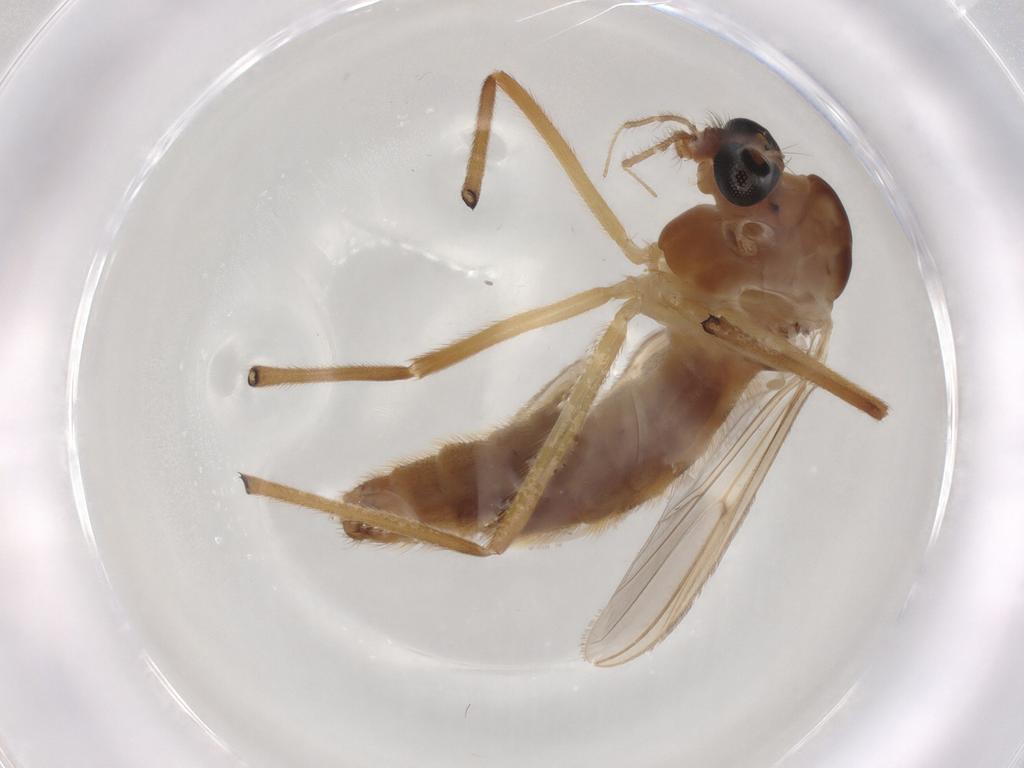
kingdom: Animalia
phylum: Arthropoda
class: Insecta
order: Diptera
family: Chironomidae
